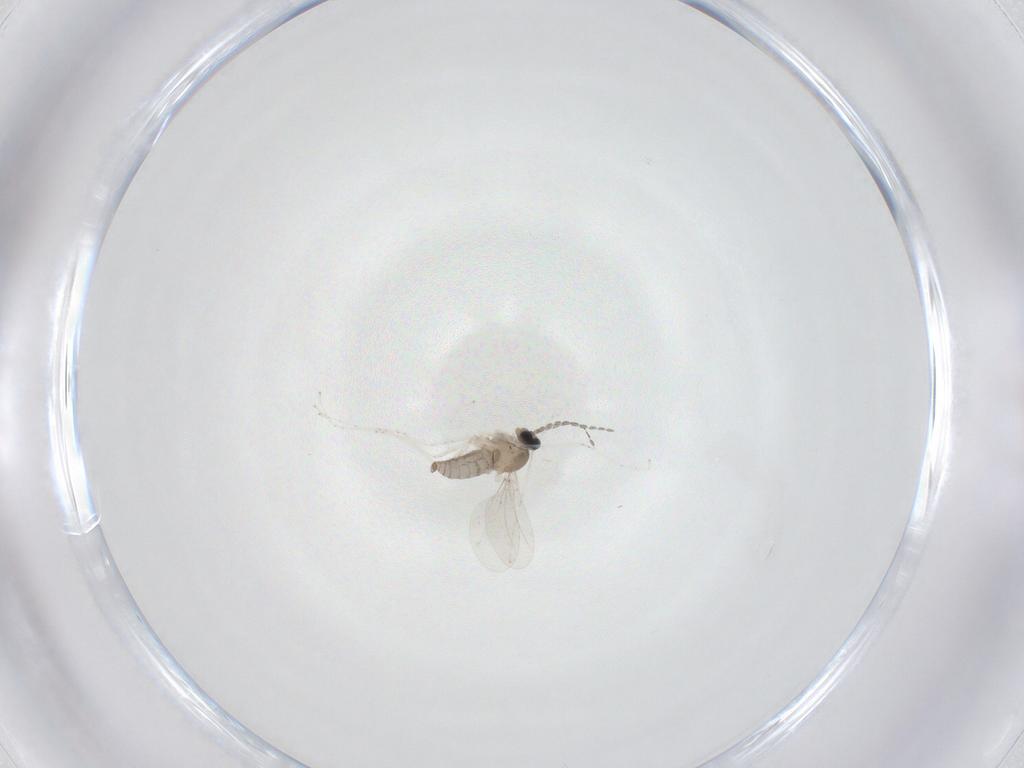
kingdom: Animalia
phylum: Arthropoda
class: Insecta
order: Diptera
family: Cecidomyiidae
